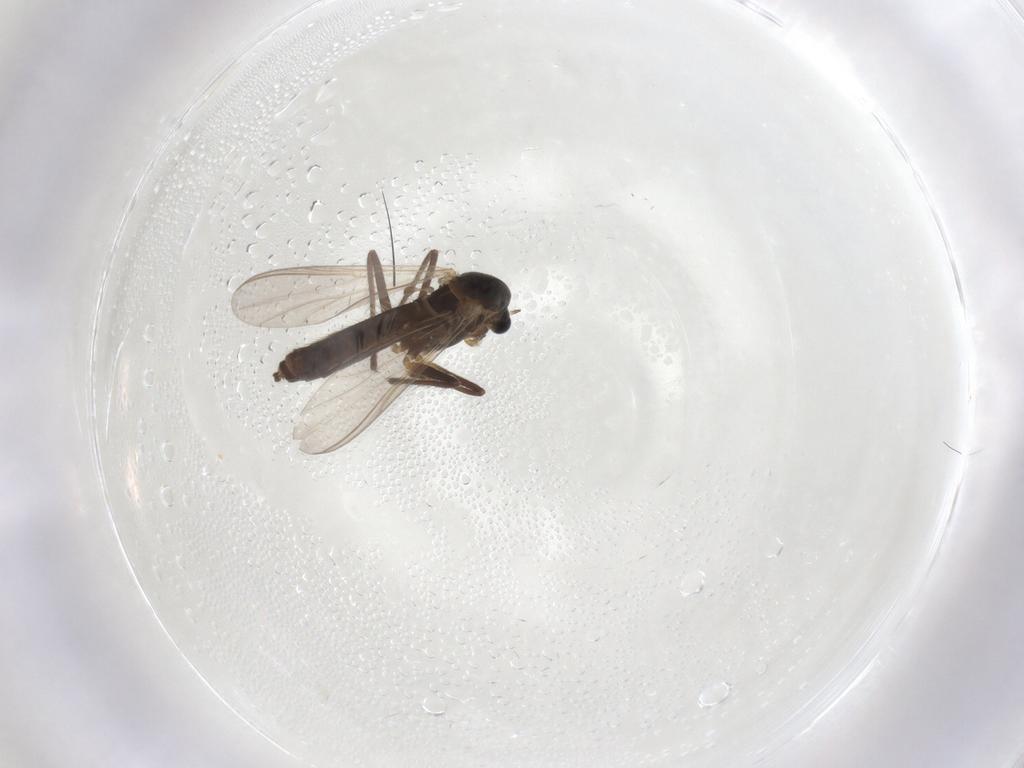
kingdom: Animalia
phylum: Arthropoda
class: Insecta
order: Diptera
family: Chironomidae
